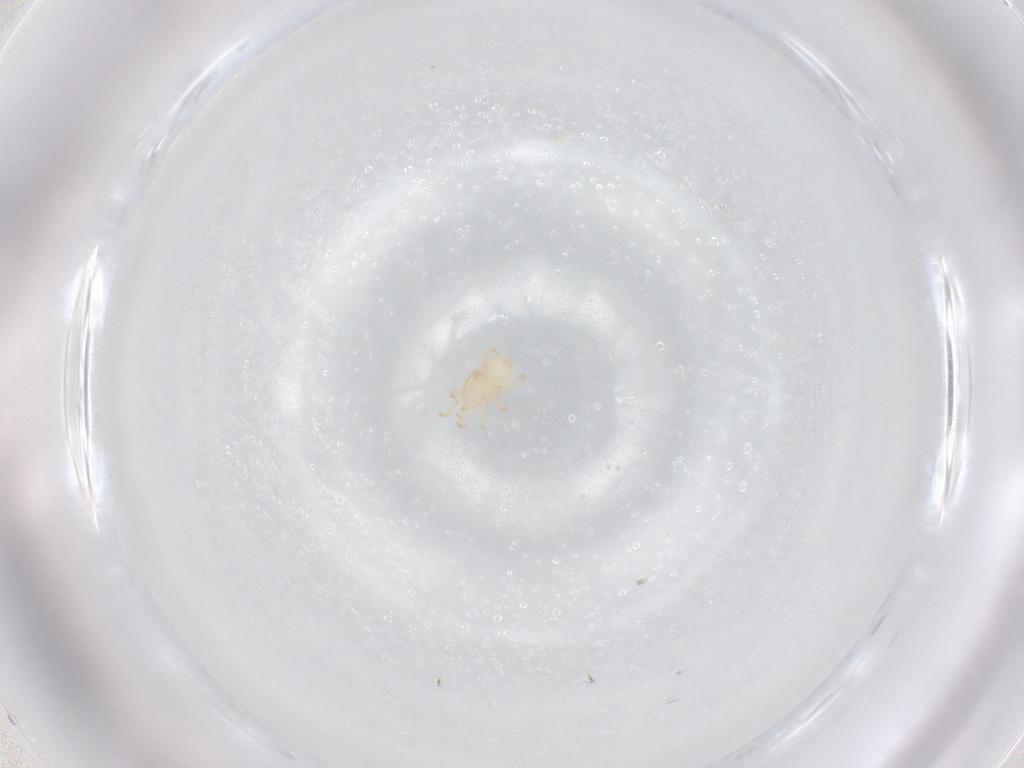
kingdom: Animalia
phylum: Arthropoda
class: Arachnida
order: Mesostigmata
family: Melicharidae
